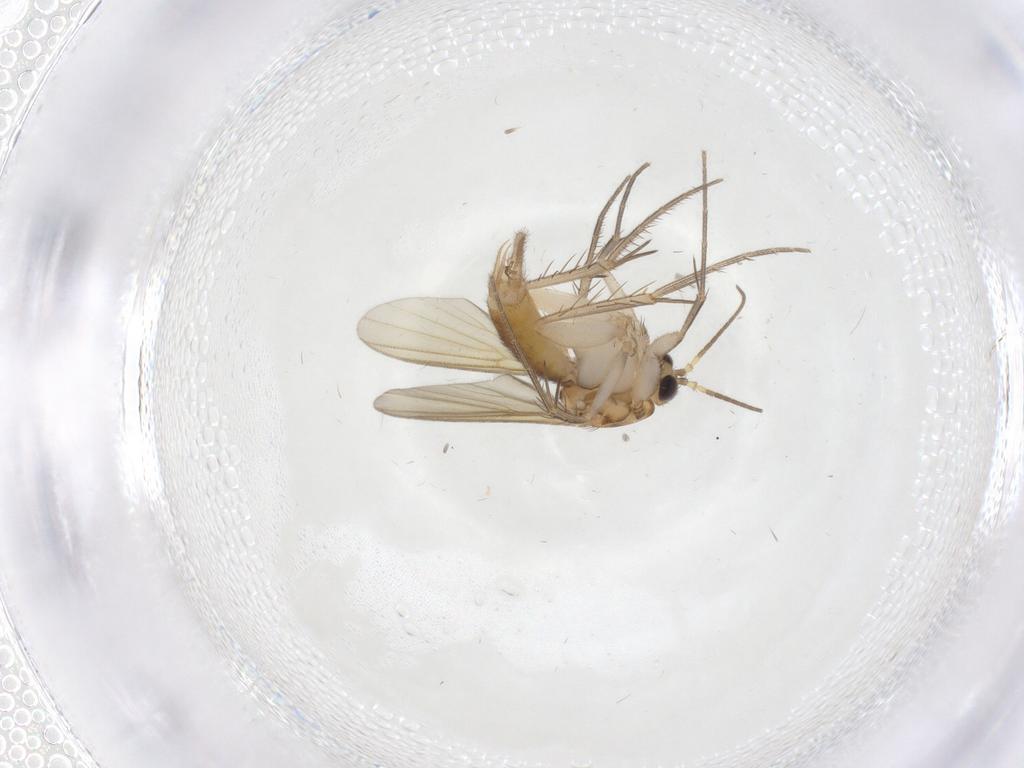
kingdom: Animalia
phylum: Arthropoda
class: Insecta
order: Diptera
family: Mycetophilidae
